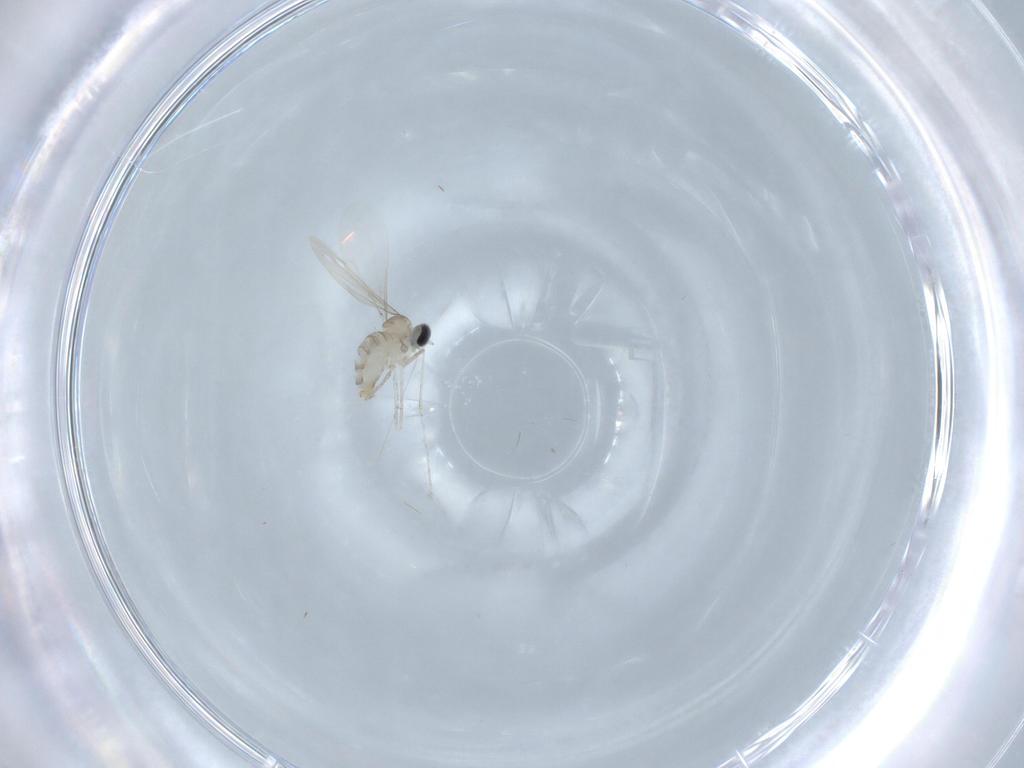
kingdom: Animalia
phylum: Arthropoda
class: Insecta
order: Diptera
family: Cecidomyiidae
